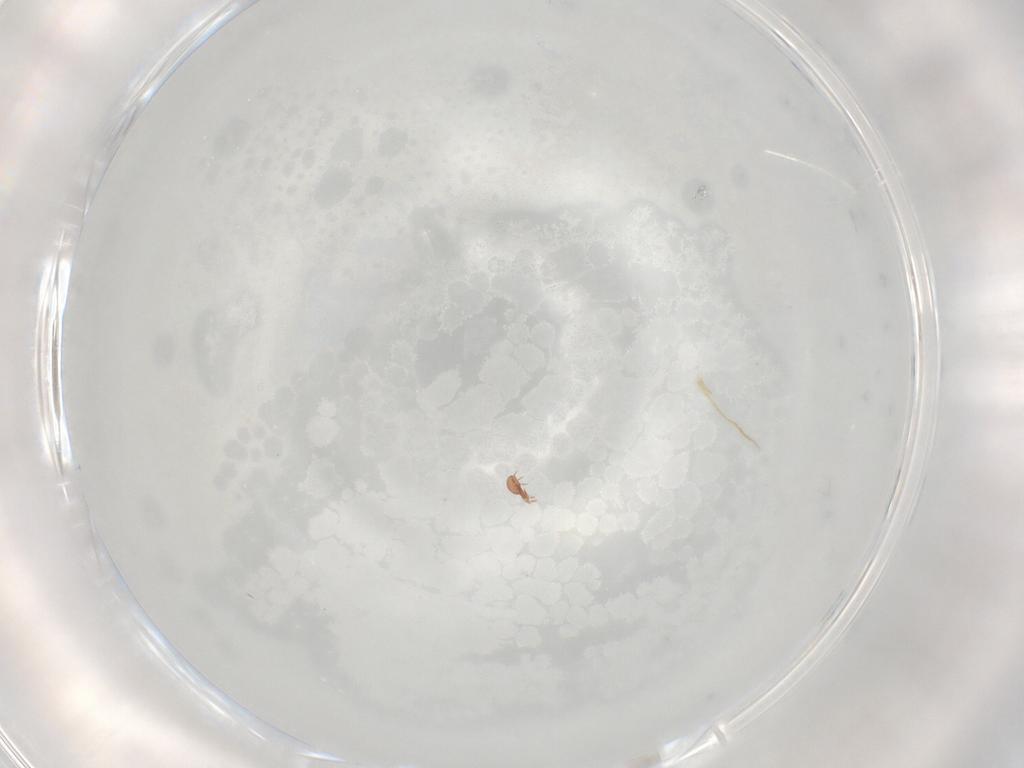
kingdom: Animalia
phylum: Arthropoda
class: Arachnida
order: Sarcoptiformes
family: Suctobelbidae
